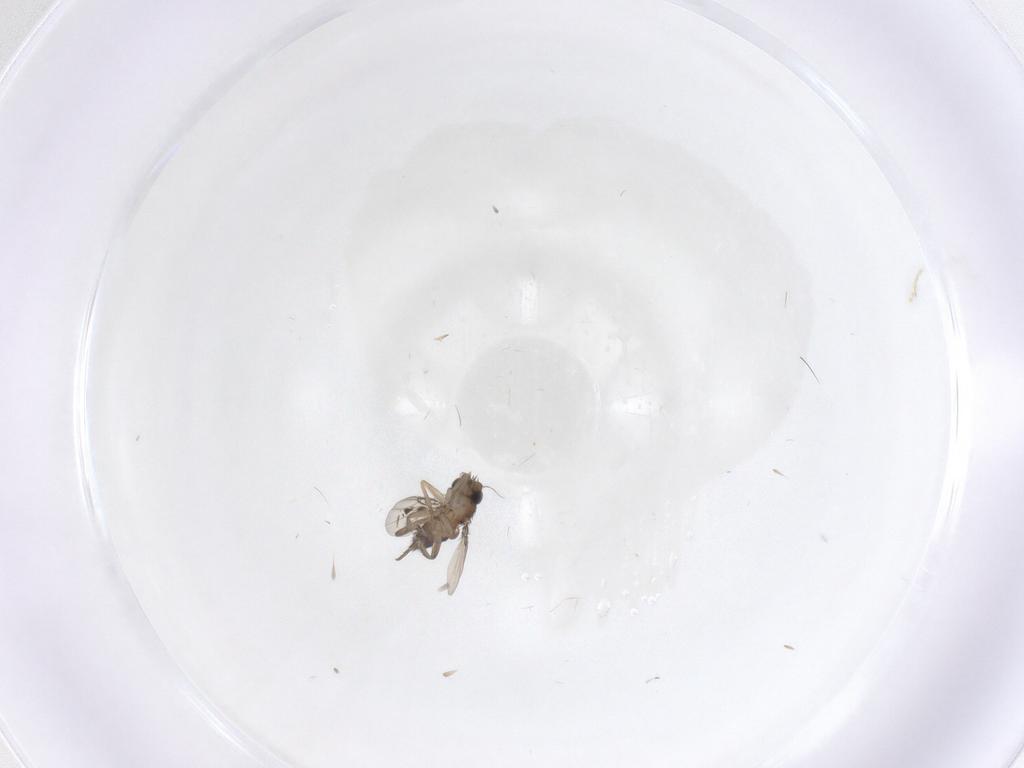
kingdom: Animalia
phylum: Arthropoda
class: Insecta
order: Diptera
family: Phoridae
